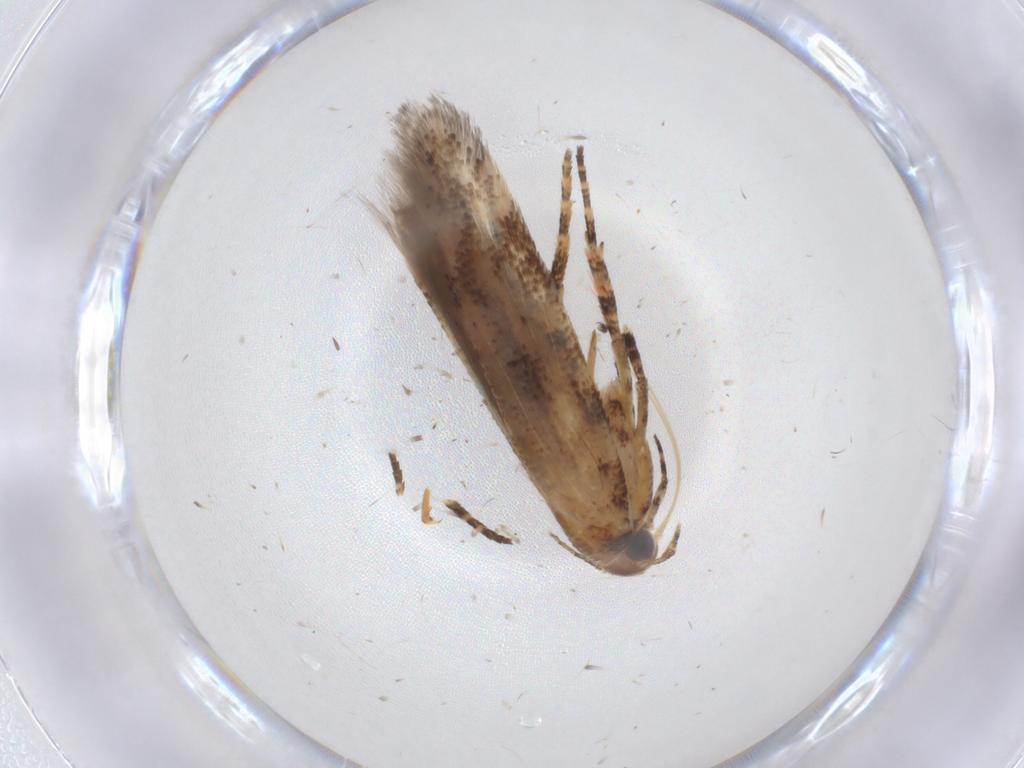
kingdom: Animalia
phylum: Arthropoda
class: Insecta
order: Lepidoptera
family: Gelechiidae
